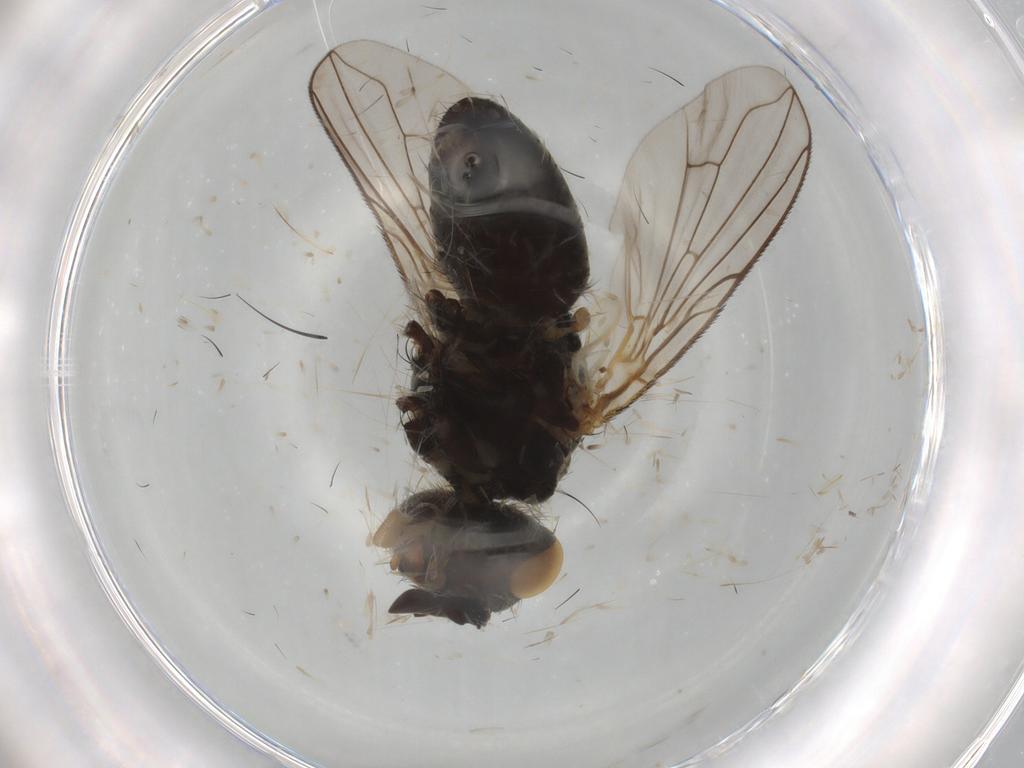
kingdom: Animalia
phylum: Arthropoda
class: Insecta
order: Diptera
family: Tachinidae
